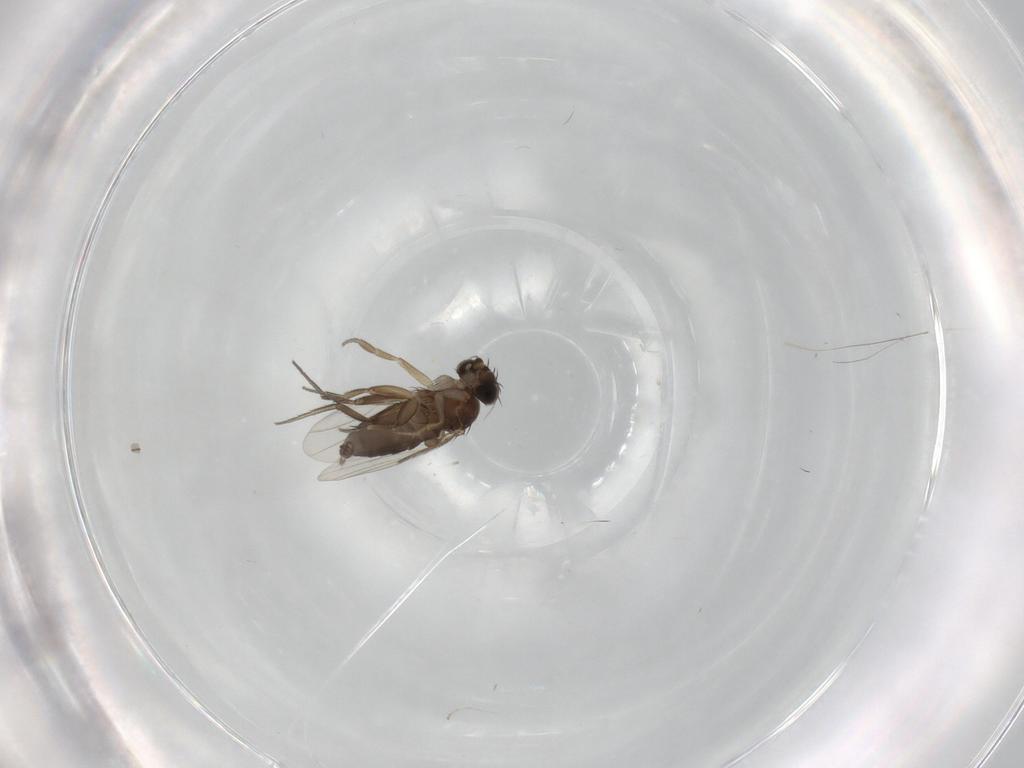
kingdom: Animalia
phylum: Arthropoda
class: Insecta
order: Diptera
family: Phoridae
